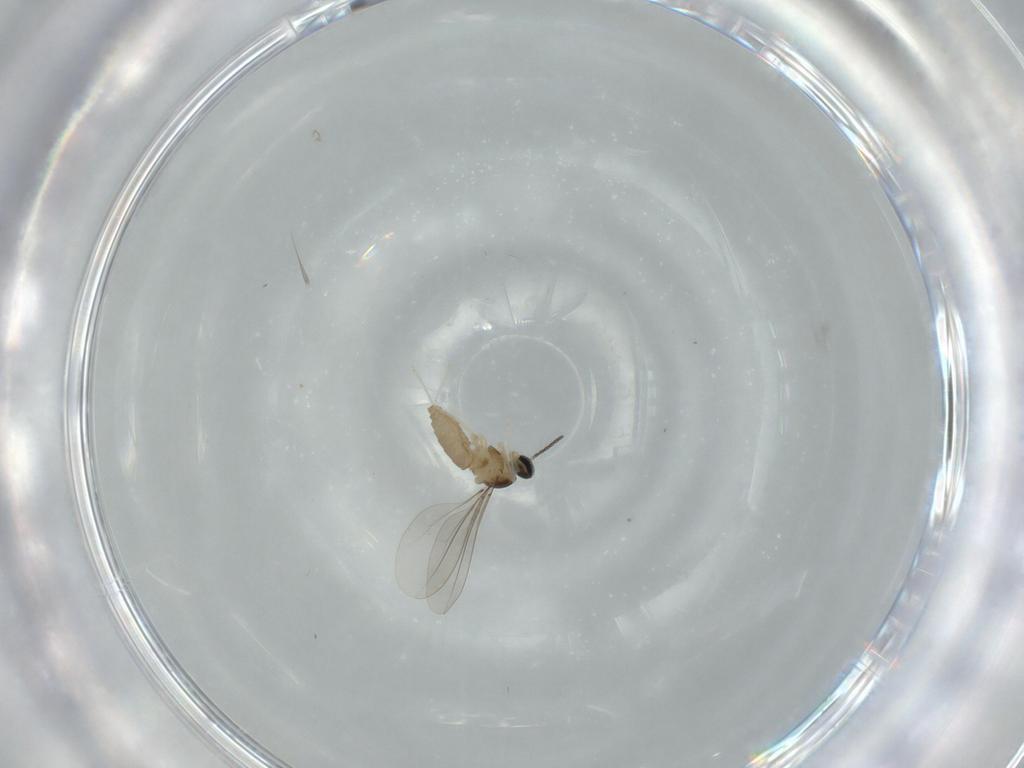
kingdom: Animalia
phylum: Arthropoda
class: Insecta
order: Diptera
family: Cecidomyiidae
